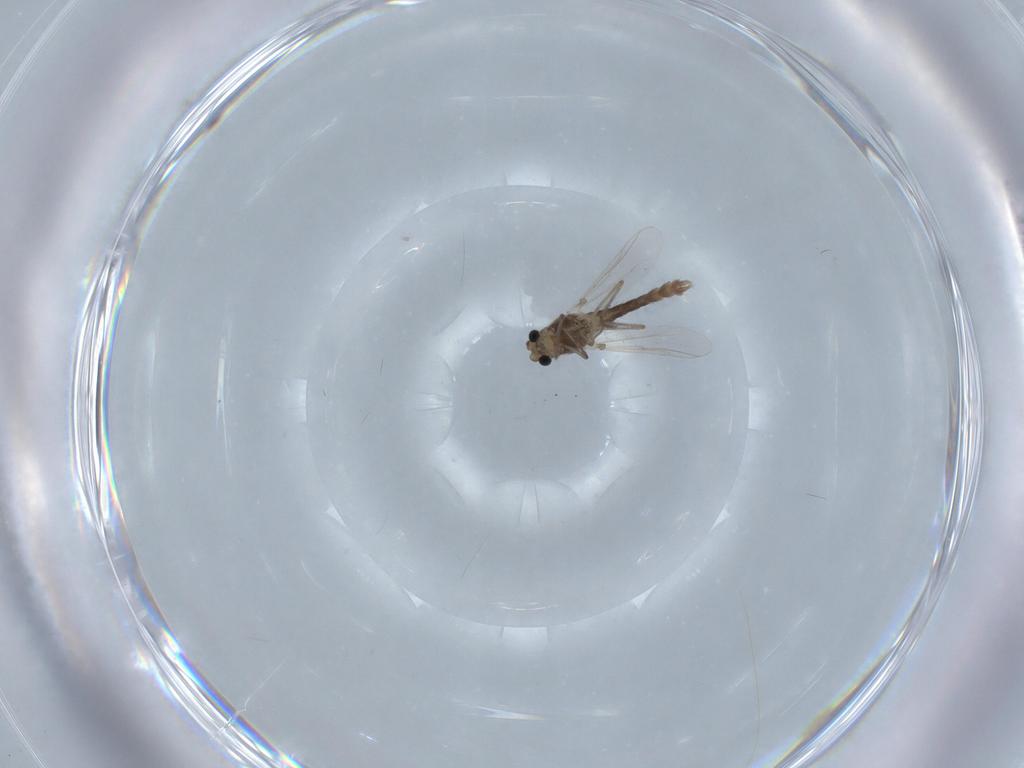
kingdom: Animalia
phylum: Arthropoda
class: Insecta
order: Diptera
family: Chironomidae
